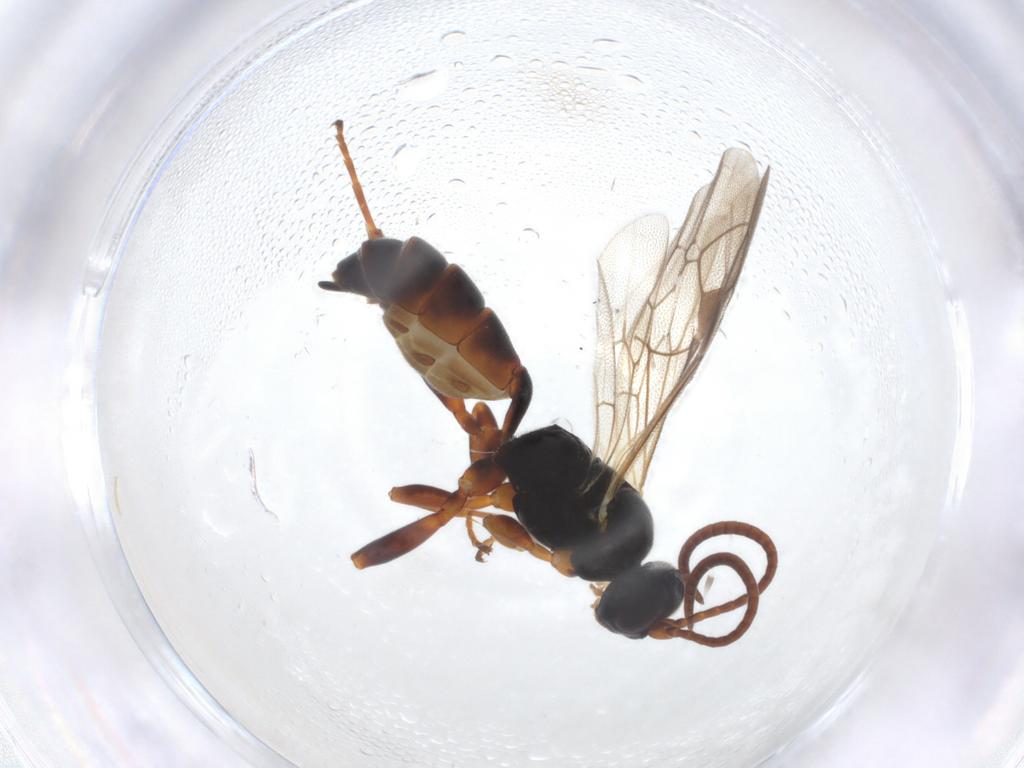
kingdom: Animalia
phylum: Arthropoda
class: Insecta
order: Hymenoptera
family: Ichneumonidae
